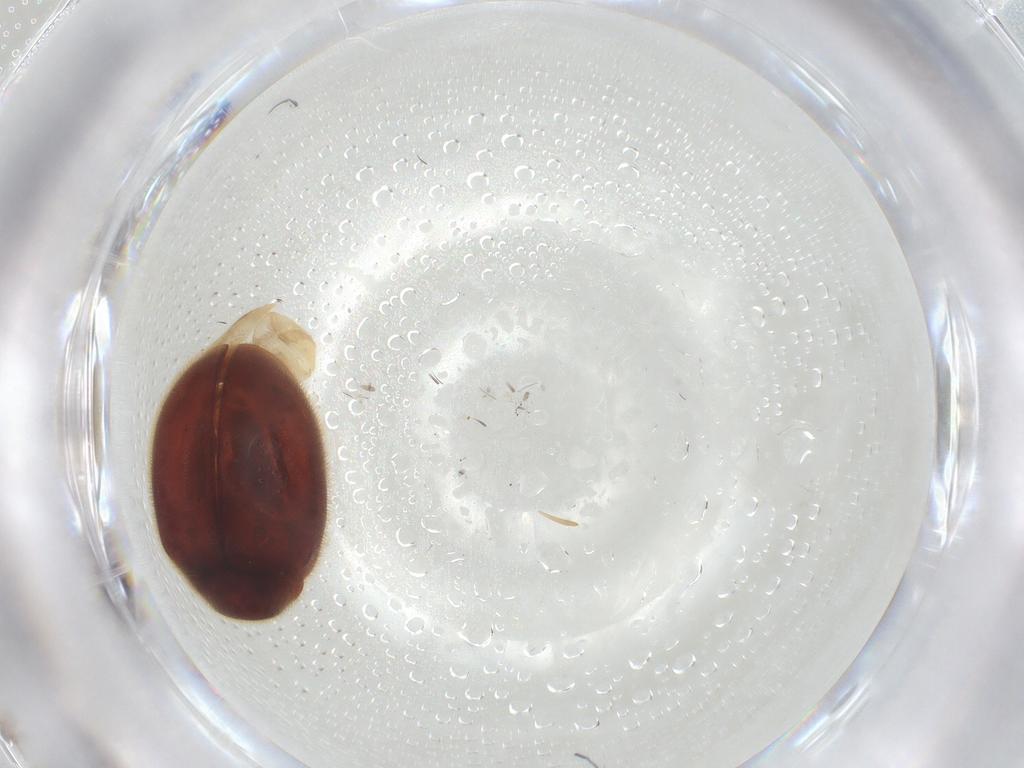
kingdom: Animalia
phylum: Arthropoda
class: Insecta
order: Coleoptera
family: Coccinellidae
